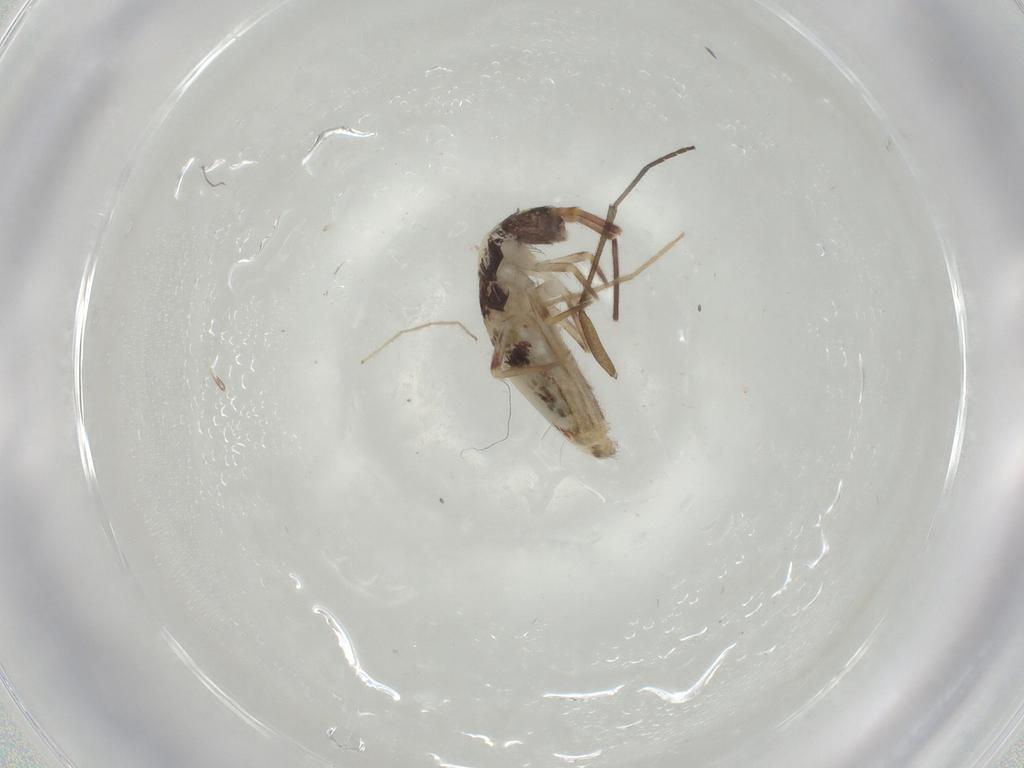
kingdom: Animalia
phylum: Arthropoda
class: Collembola
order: Entomobryomorpha
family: Entomobryidae
